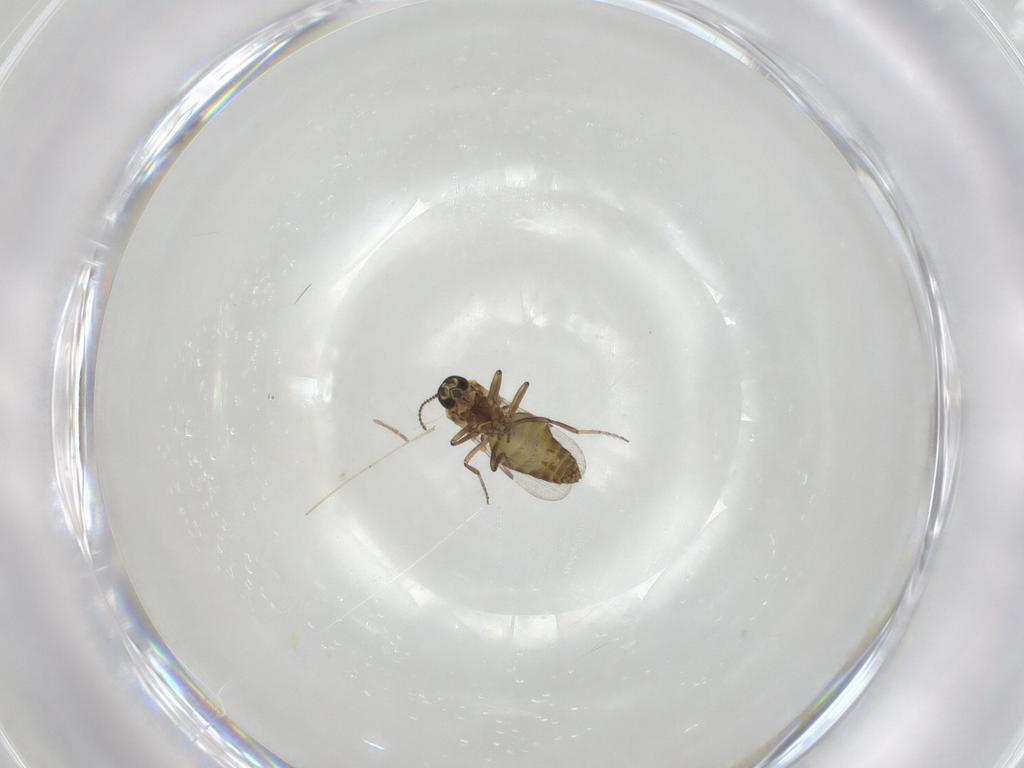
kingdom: Animalia
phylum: Arthropoda
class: Insecta
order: Diptera
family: Ceratopogonidae
